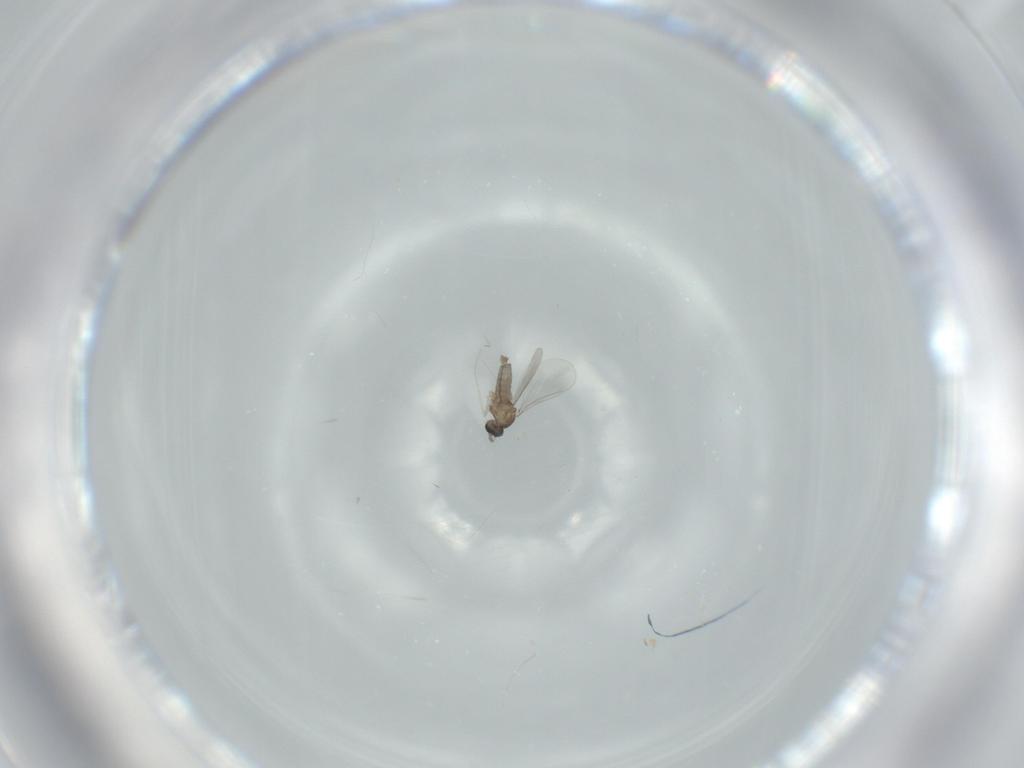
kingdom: Animalia
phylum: Arthropoda
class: Insecta
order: Diptera
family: Cecidomyiidae
